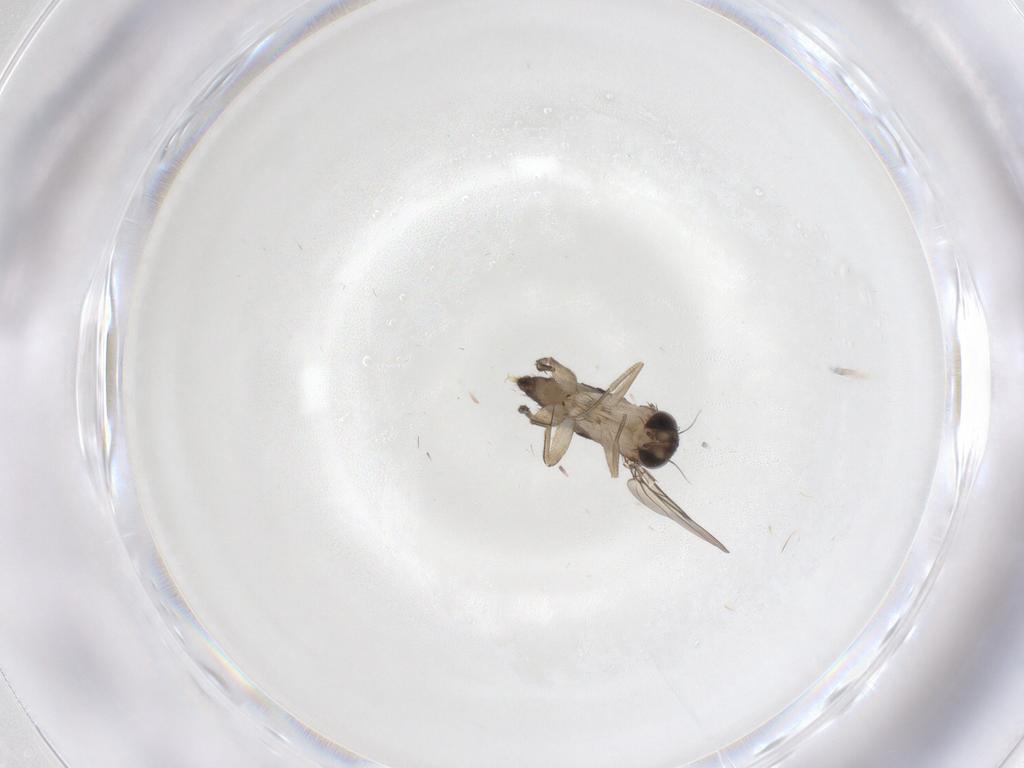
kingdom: Animalia
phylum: Arthropoda
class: Insecta
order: Diptera
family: Phoridae
